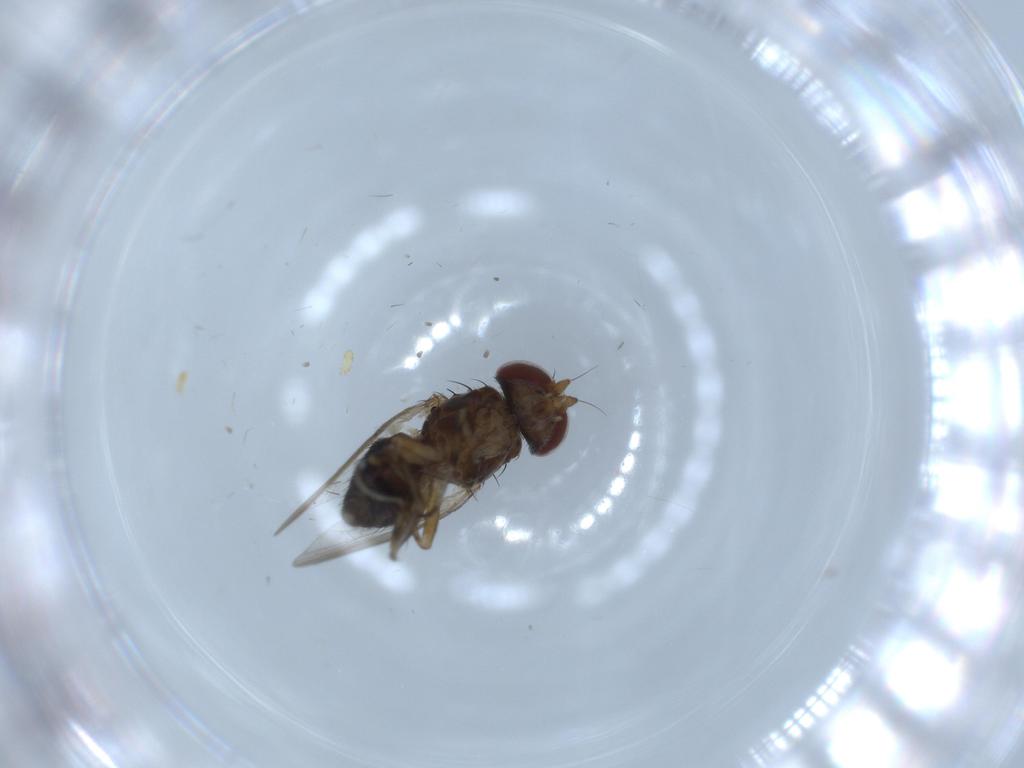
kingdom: Animalia
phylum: Arthropoda
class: Insecta
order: Diptera
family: Heleomyzidae
